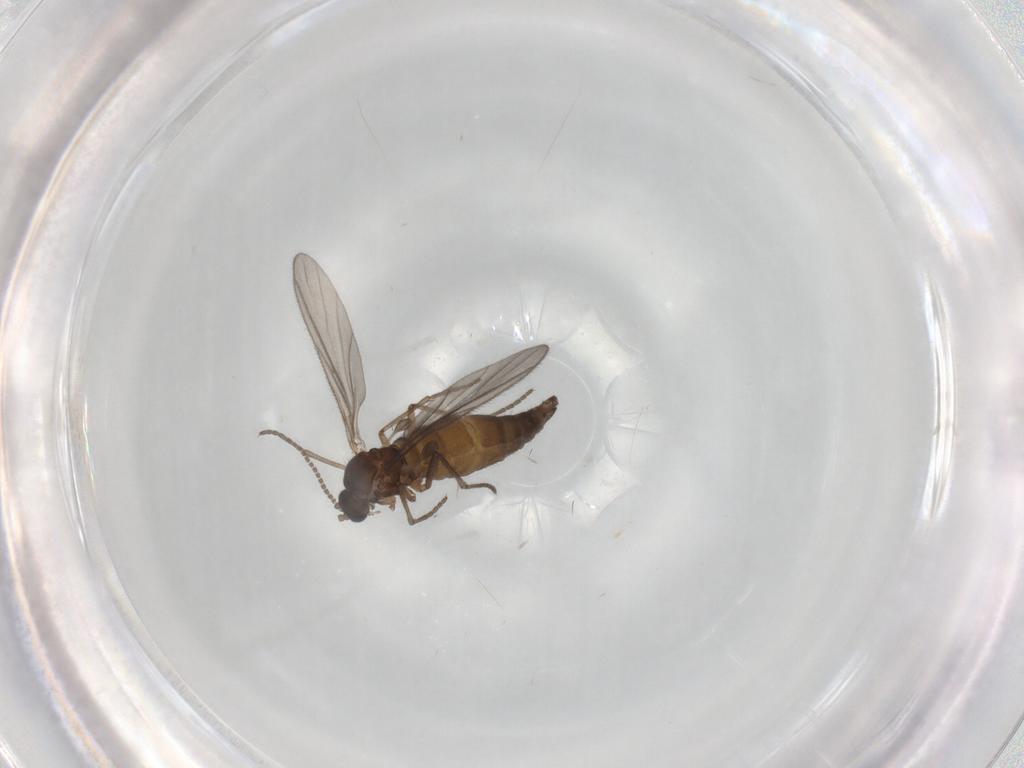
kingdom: Animalia
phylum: Arthropoda
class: Insecta
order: Diptera
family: Sciaridae
